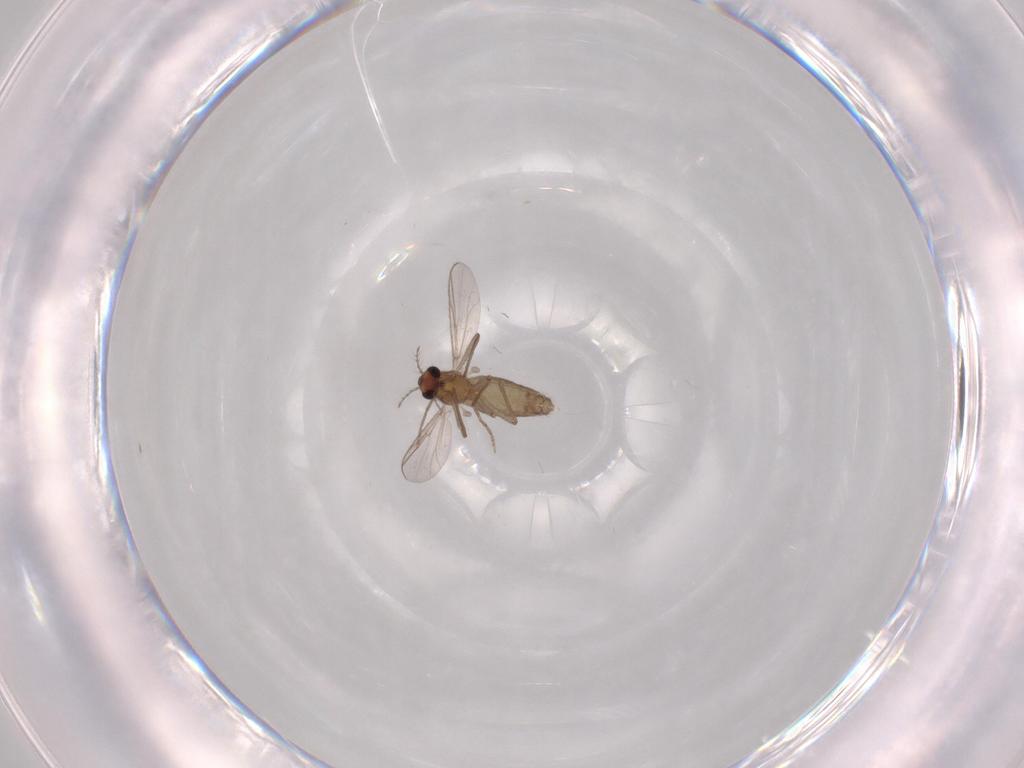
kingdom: Animalia
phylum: Arthropoda
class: Insecta
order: Diptera
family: Chironomidae
